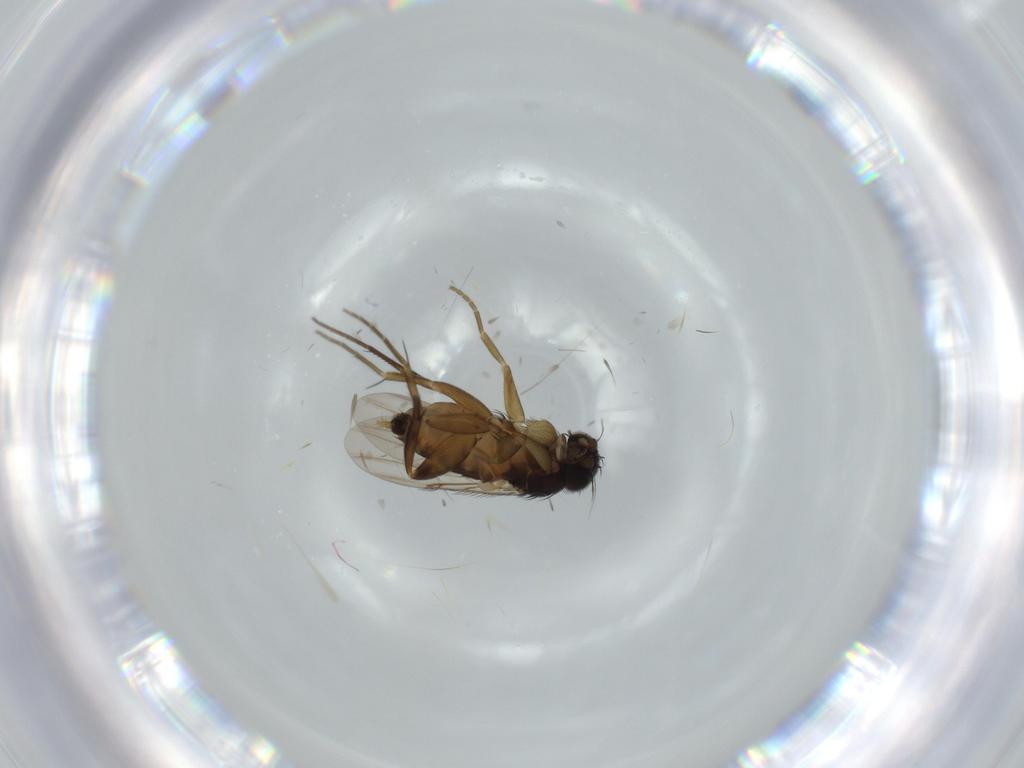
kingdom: Animalia
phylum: Arthropoda
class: Insecta
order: Diptera
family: Phoridae
